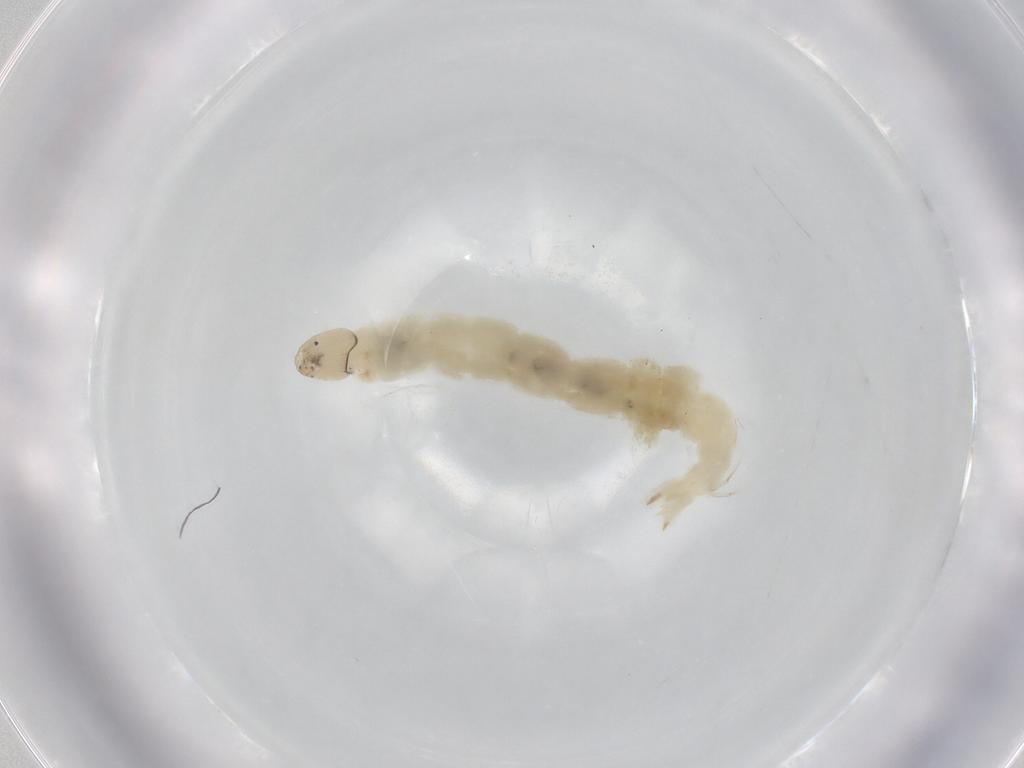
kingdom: Animalia
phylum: Arthropoda
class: Insecta
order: Diptera
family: Chironomidae
